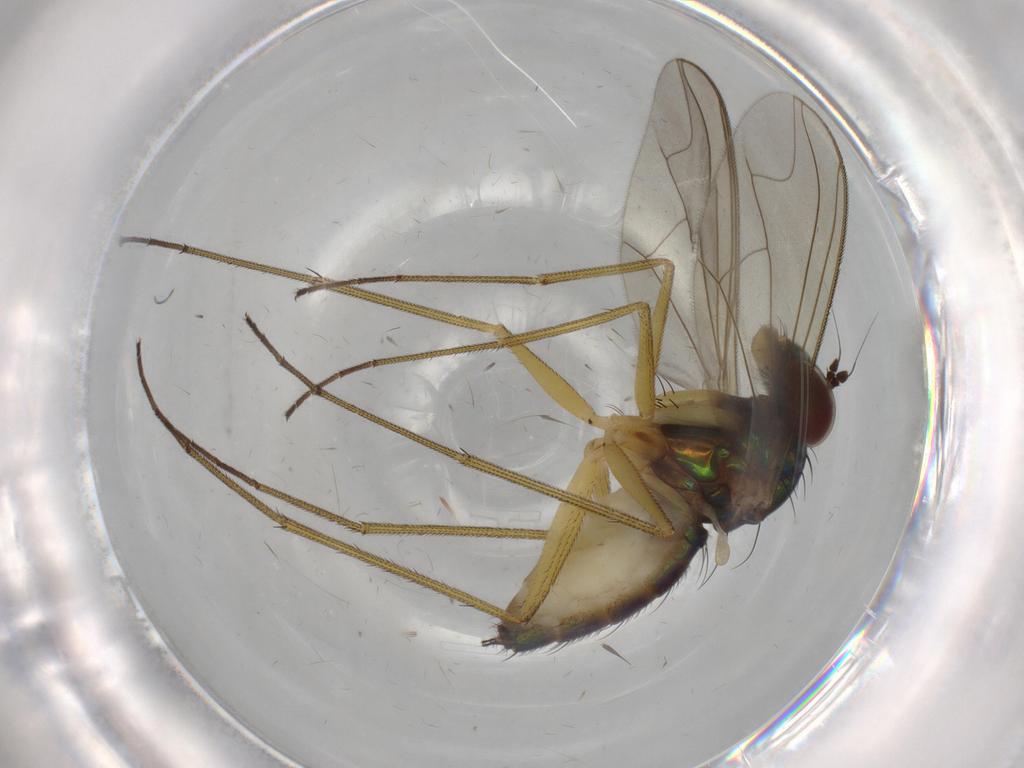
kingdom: Animalia
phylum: Arthropoda
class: Insecta
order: Diptera
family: Dolichopodidae
